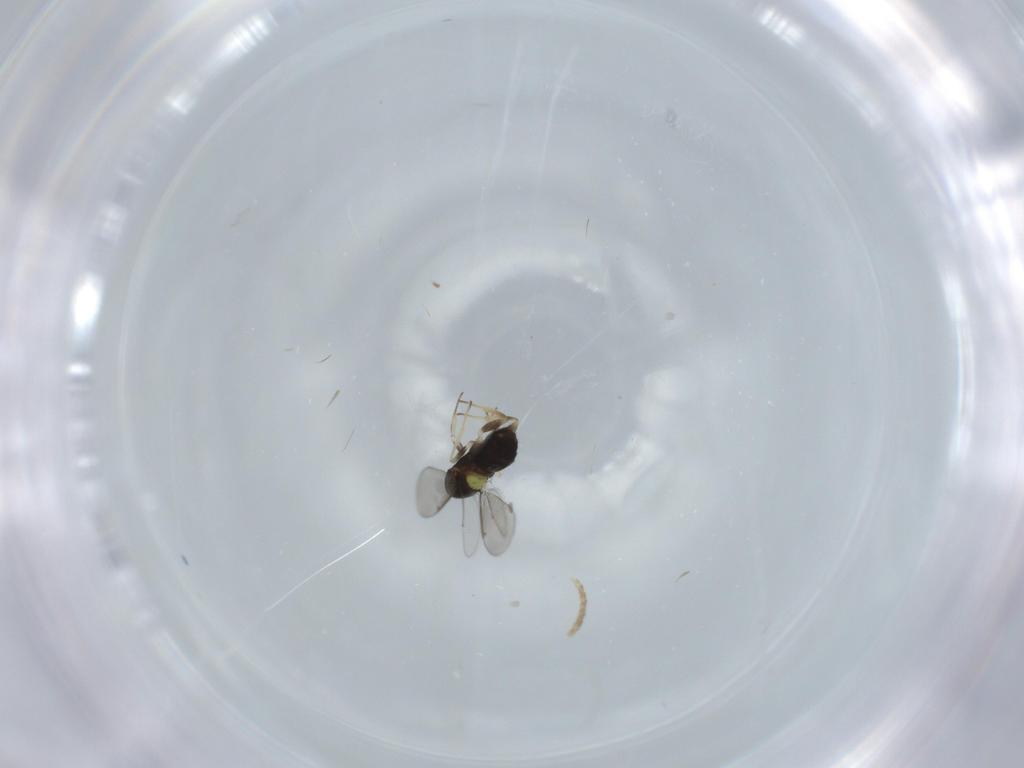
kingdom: Animalia
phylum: Arthropoda
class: Insecta
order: Hymenoptera
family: Aphelinidae
